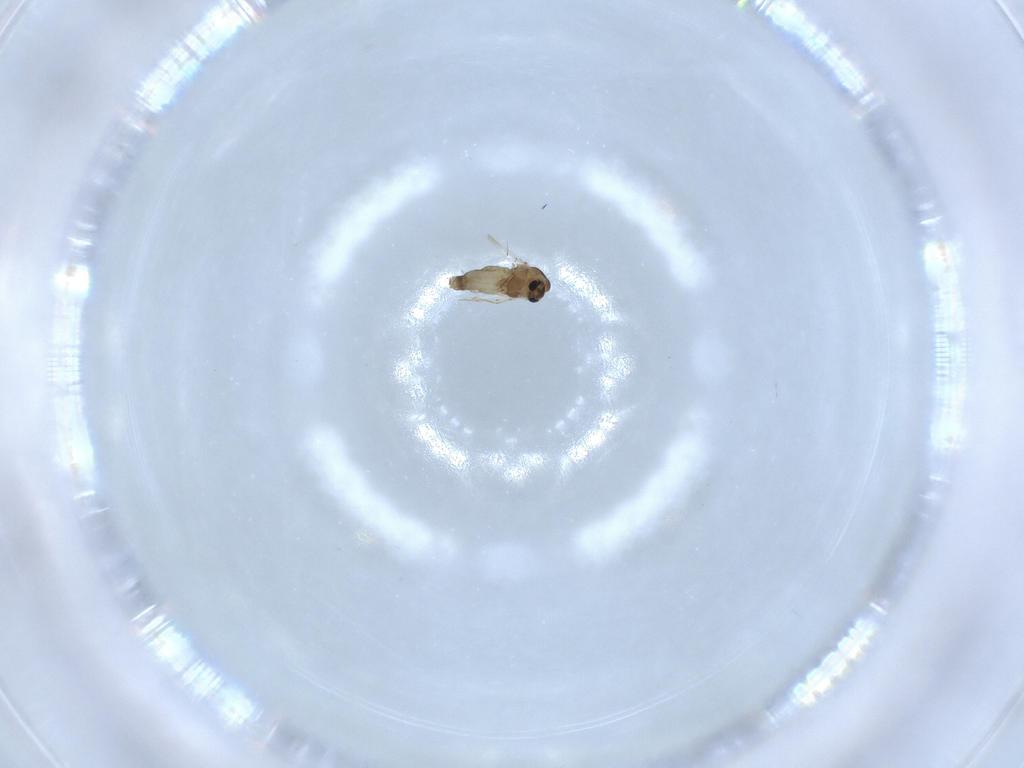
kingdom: Animalia
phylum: Arthropoda
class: Insecta
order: Diptera
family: Chironomidae
